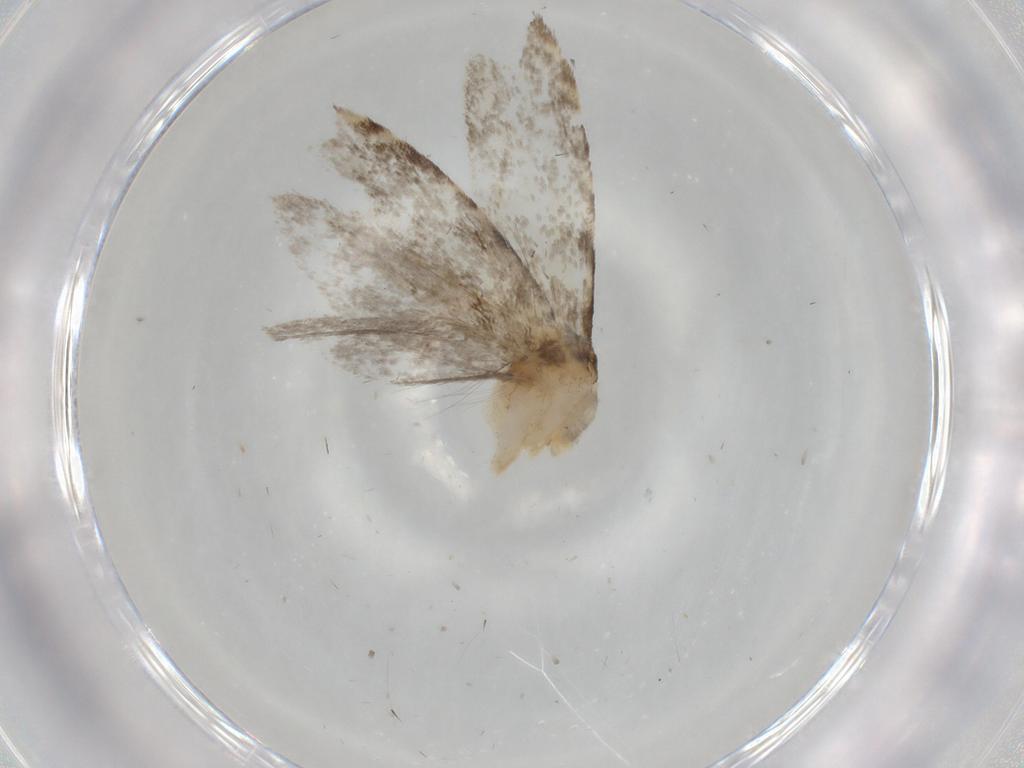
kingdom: Animalia
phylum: Arthropoda
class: Insecta
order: Lepidoptera
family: Tineidae
